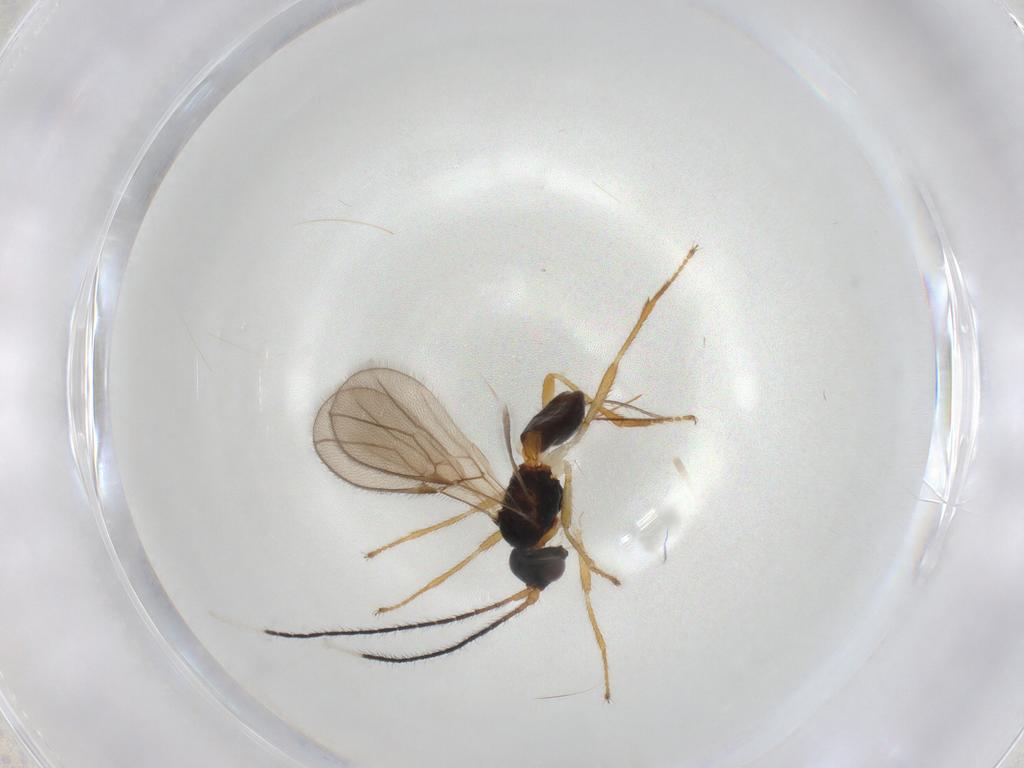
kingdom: Animalia
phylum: Arthropoda
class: Insecta
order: Hymenoptera
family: Braconidae
